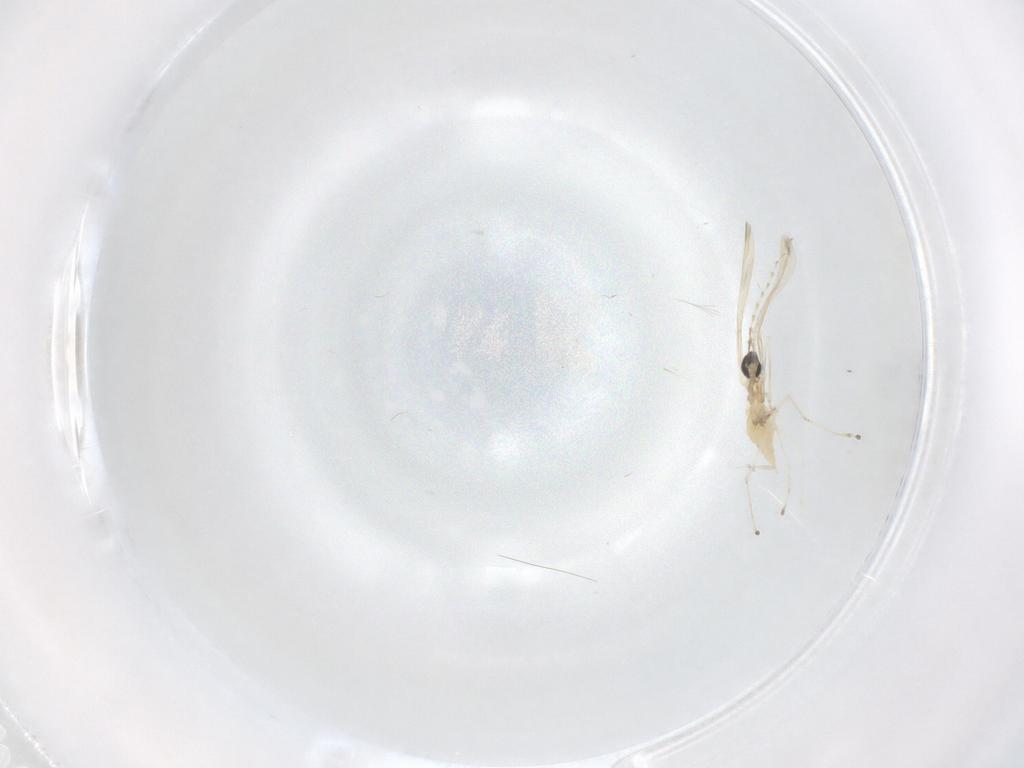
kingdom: Animalia
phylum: Arthropoda
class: Insecta
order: Diptera
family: Cecidomyiidae
